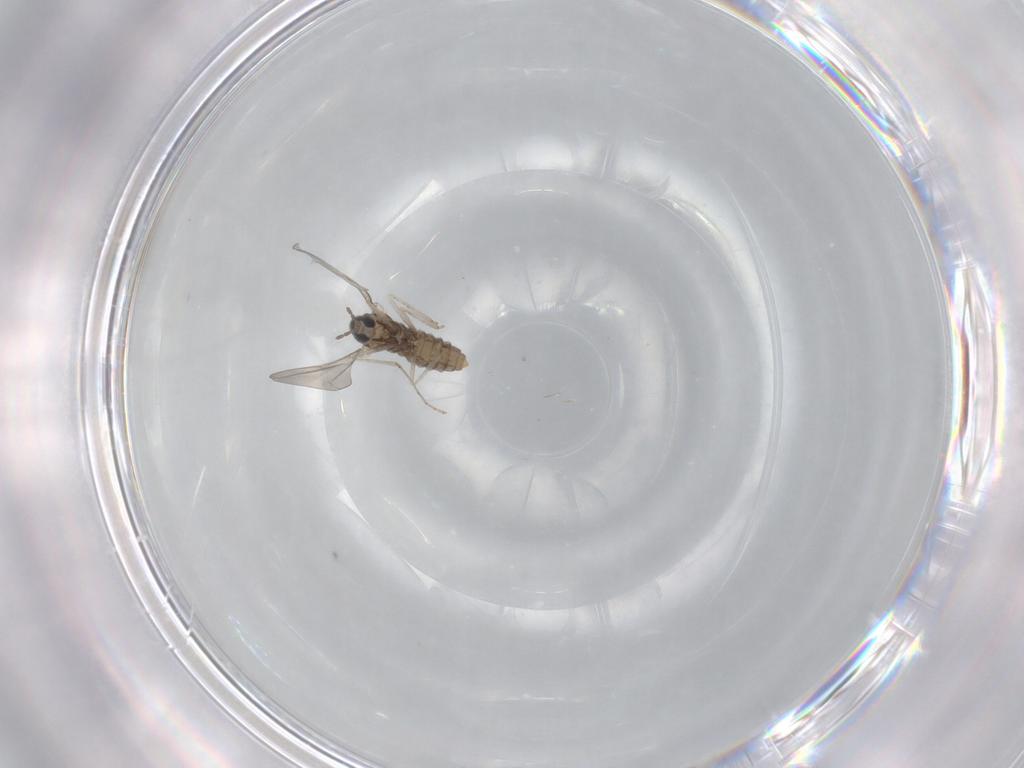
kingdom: Animalia
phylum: Arthropoda
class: Insecta
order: Diptera
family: Cecidomyiidae
